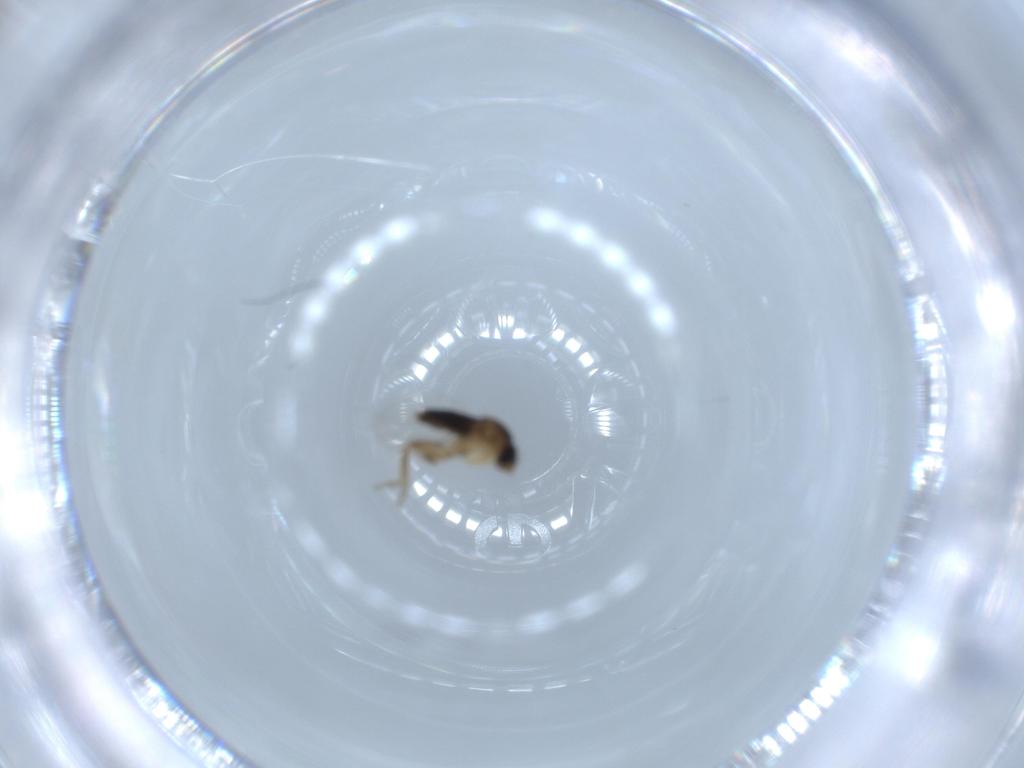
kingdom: Animalia
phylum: Arthropoda
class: Insecta
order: Diptera
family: Phoridae
